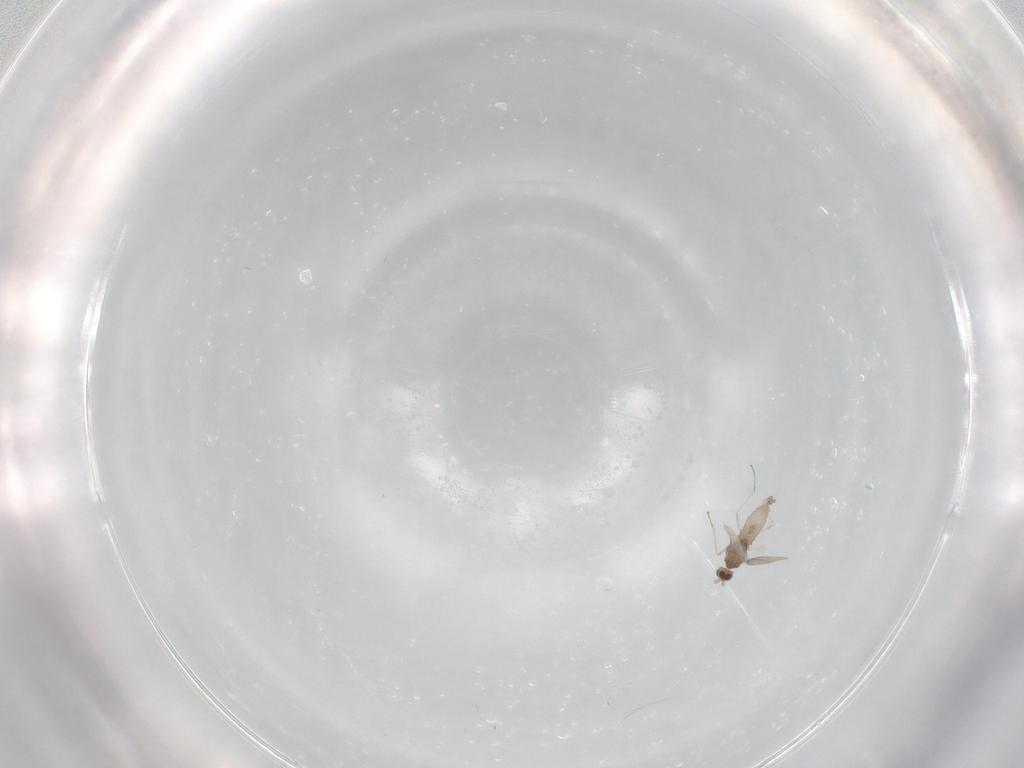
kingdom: Animalia
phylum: Arthropoda
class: Insecta
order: Diptera
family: Cecidomyiidae
